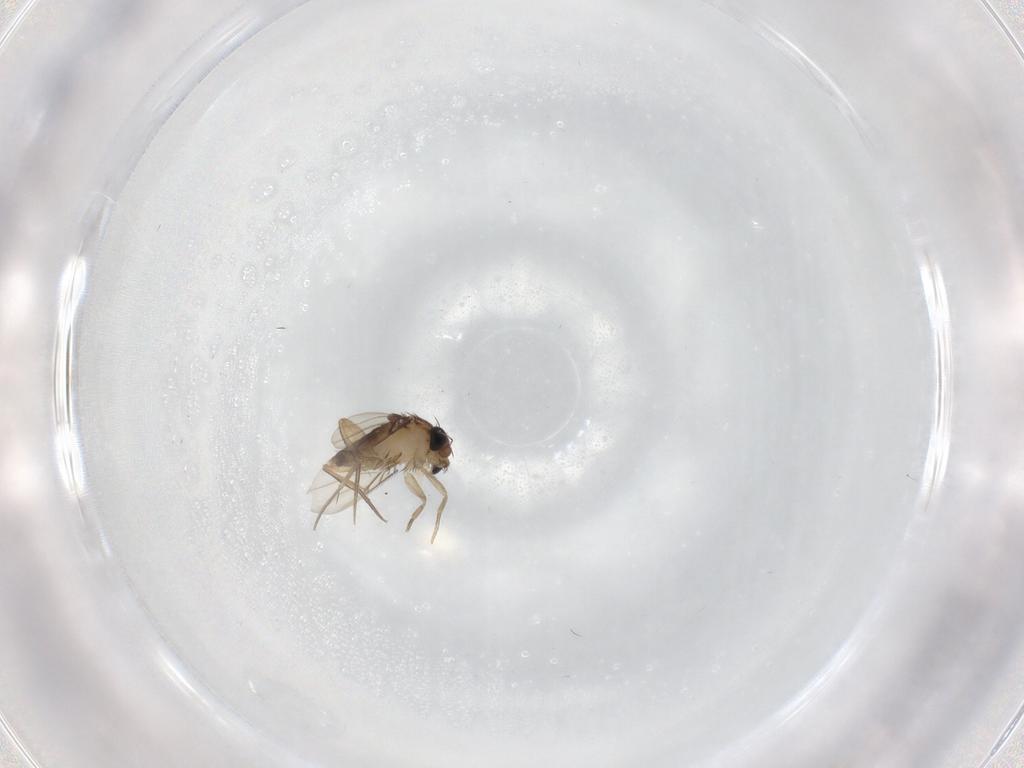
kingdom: Animalia
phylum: Arthropoda
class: Insecta
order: Diptera
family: Phoridae
